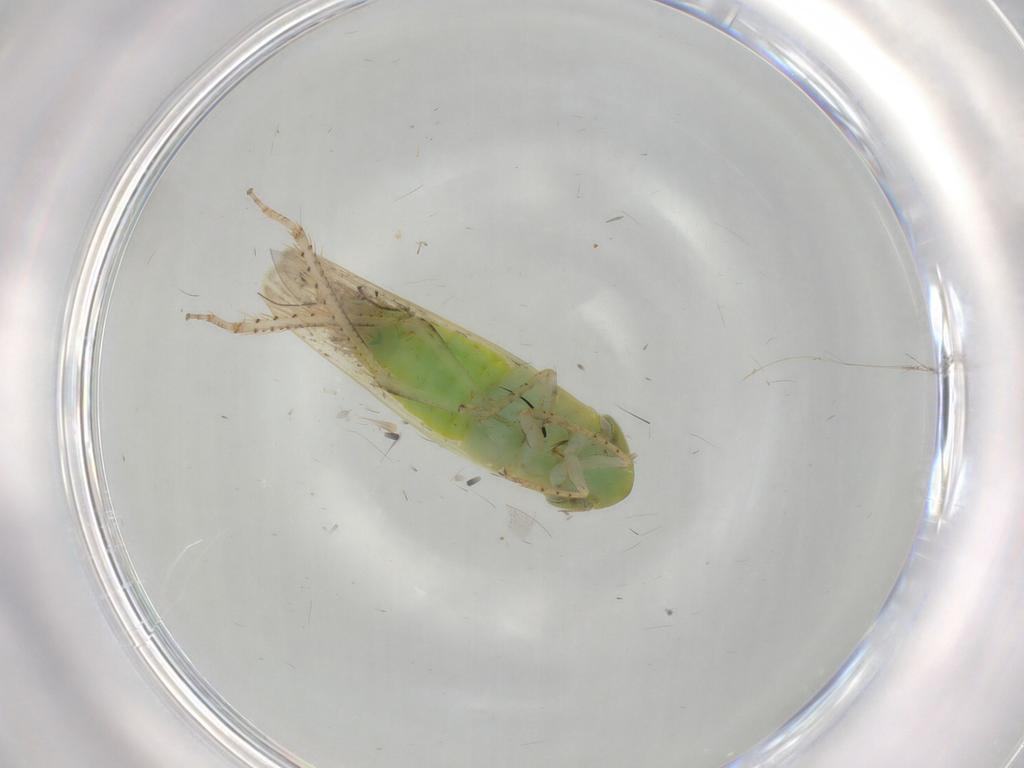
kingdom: Animalia
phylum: Arthropoda
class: Insecta
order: Hemiptera
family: Cicadellidae
